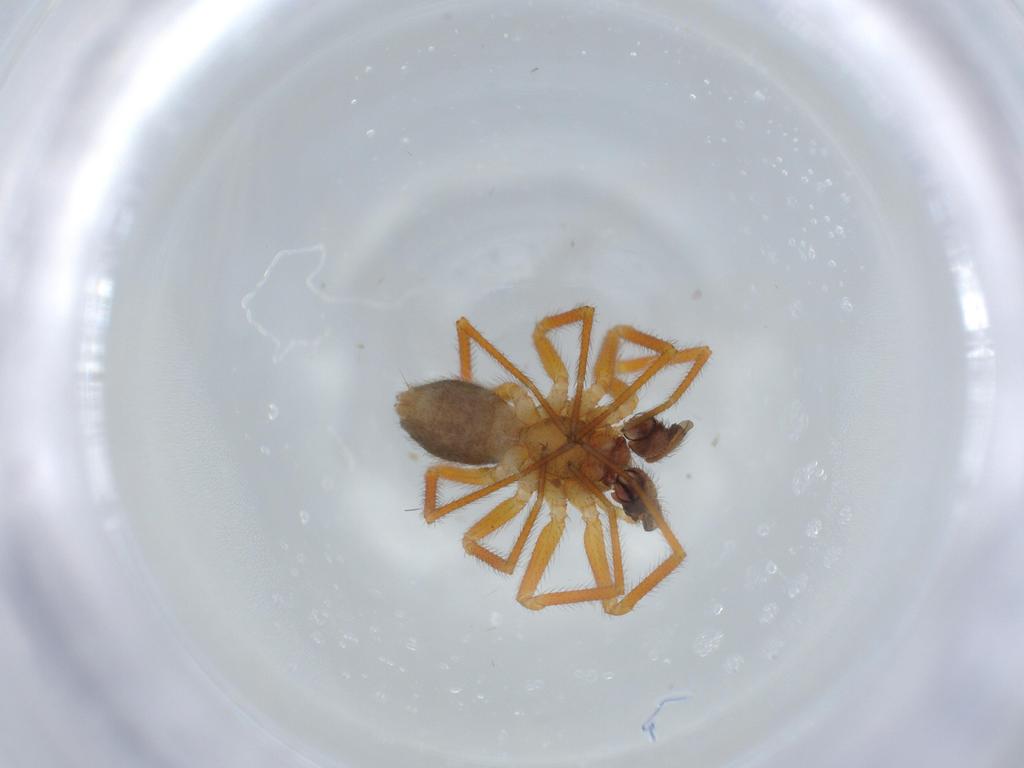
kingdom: Animalia
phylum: Arthropoda
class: Arachnida
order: Araneae
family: Linyphiidae
